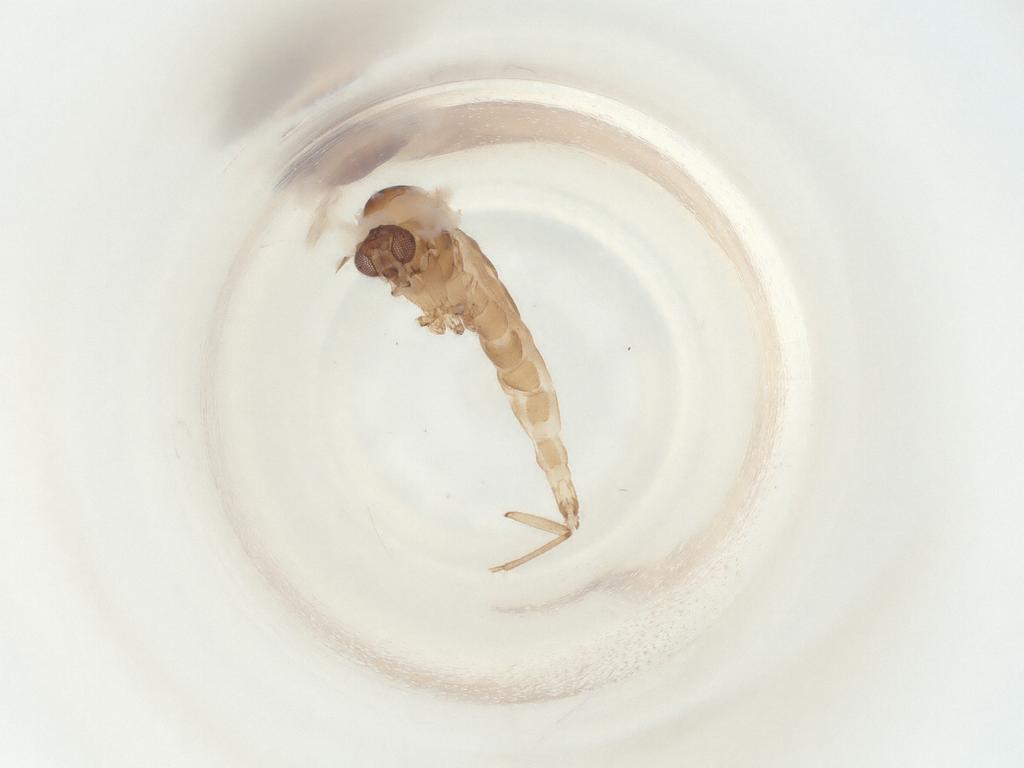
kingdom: Animalia
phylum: Arthropoda
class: Insecta
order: Diptera
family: Sciaridae
